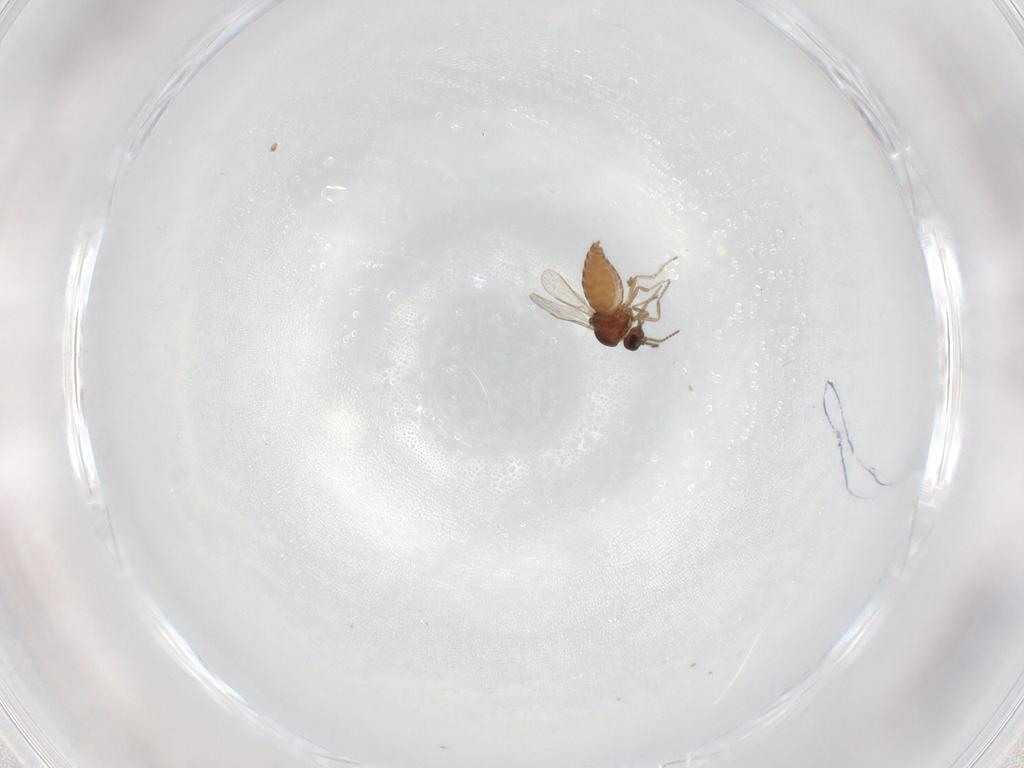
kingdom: Animalia
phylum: Arthropoda
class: Insecta
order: Diptera
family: Ceratopogonidae
